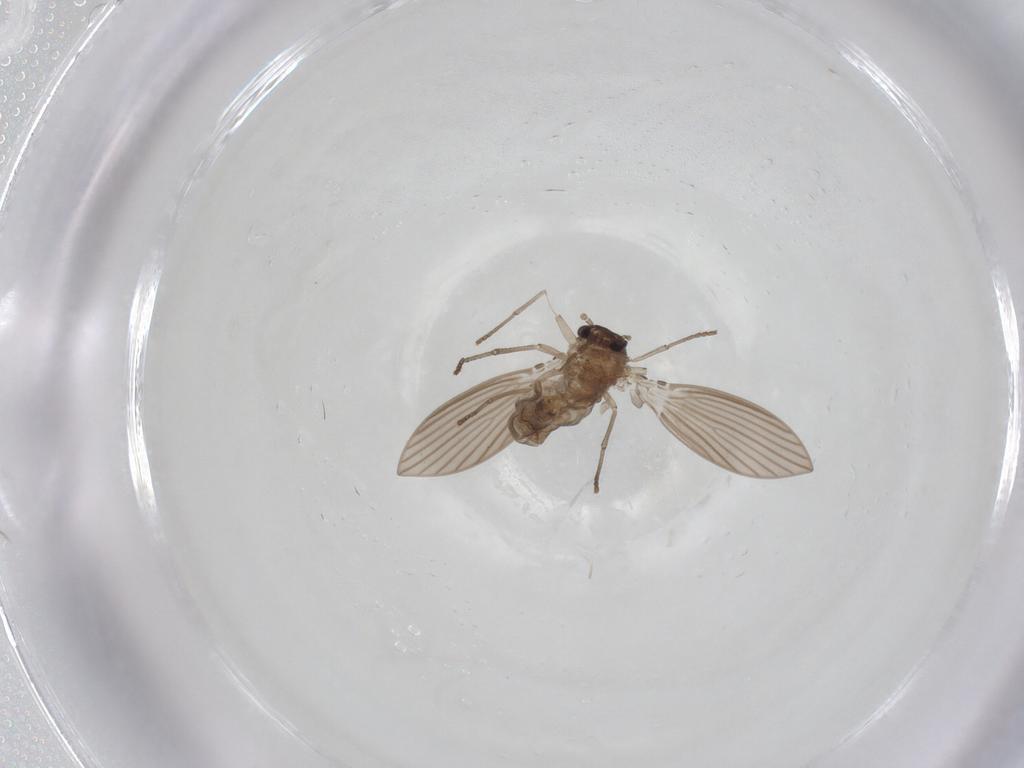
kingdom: Animalia
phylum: Arthropoda
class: Insecta
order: Diptera
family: Psychodidae
